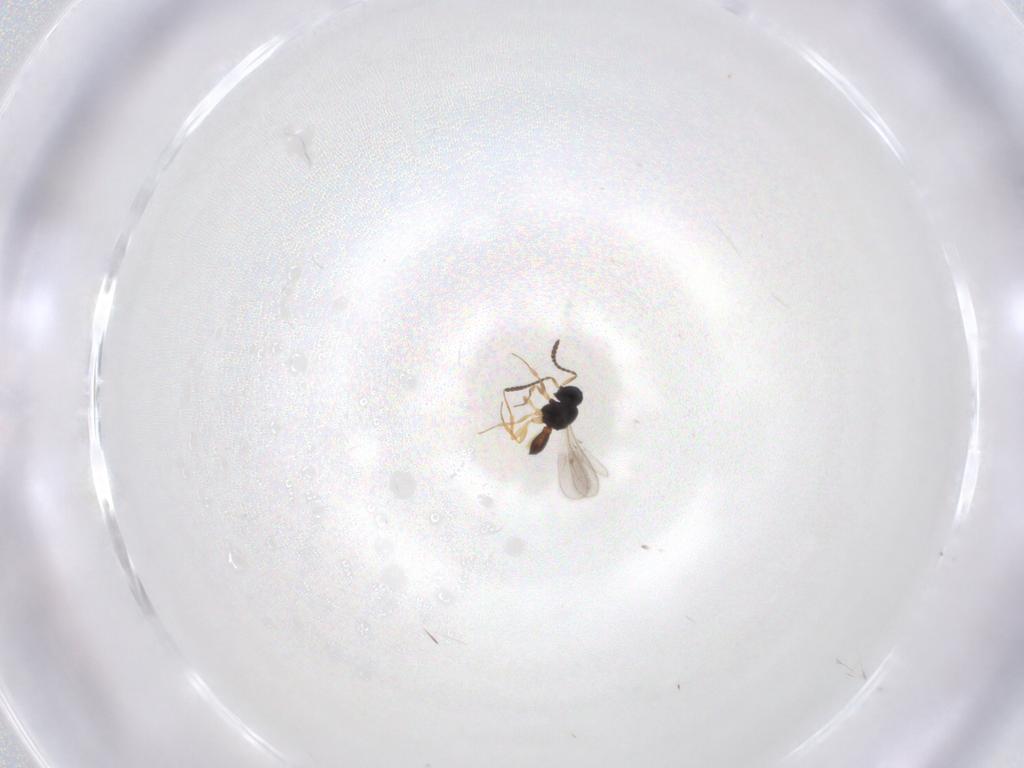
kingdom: Animalia
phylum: Arthropoda
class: Insecta
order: Hymenoptera
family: Scelionidae
